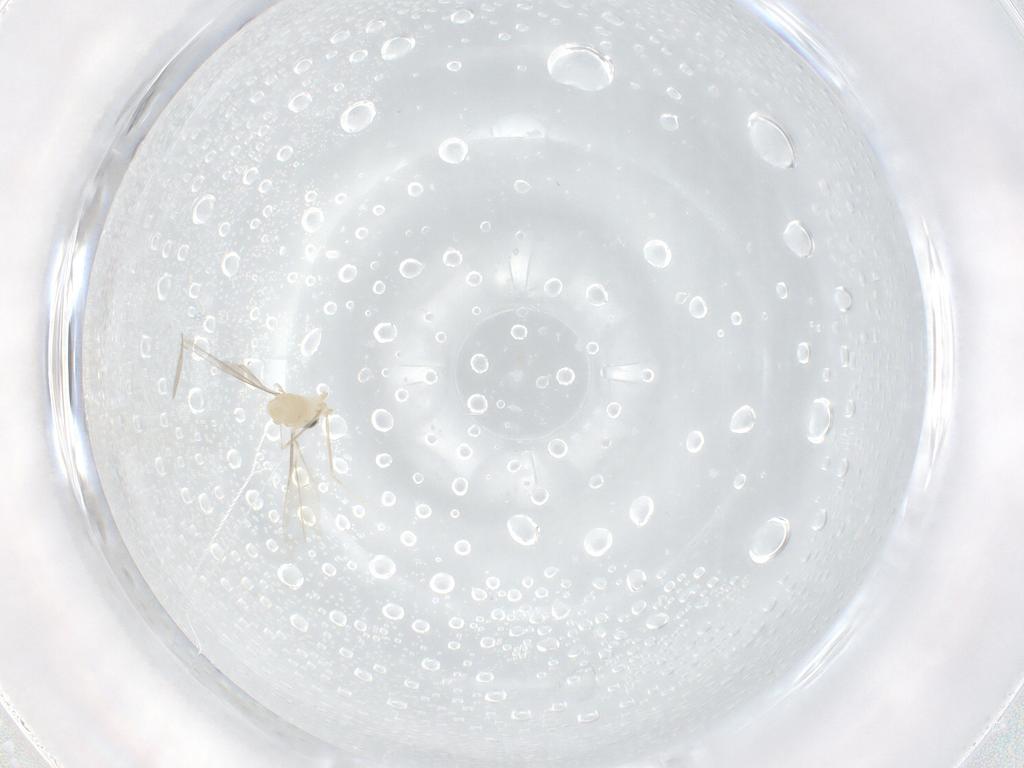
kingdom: Animalia
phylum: Arthropoda
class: Insecta
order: Diptera
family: Cecidomyiidae
